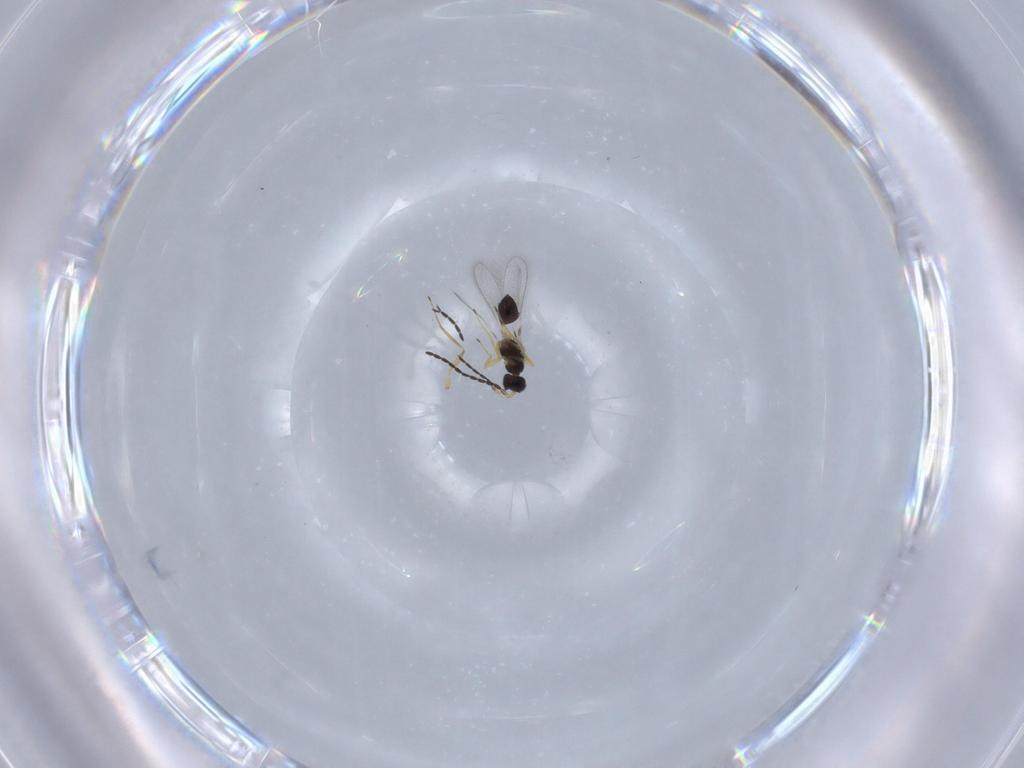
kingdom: Animalia
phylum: Arthropoda
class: Insecta
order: Hymenoptera
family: Mymaridae
